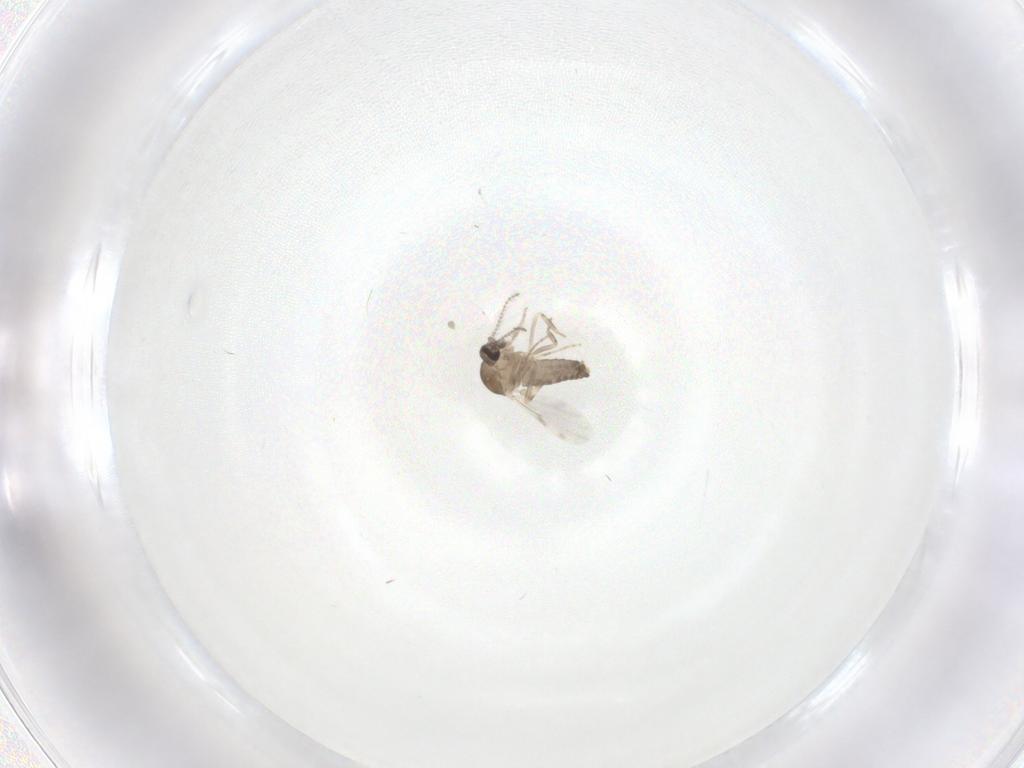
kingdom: Animalia
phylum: Arthropoda
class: Insecta
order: Diptera
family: Ceratopogonidae
